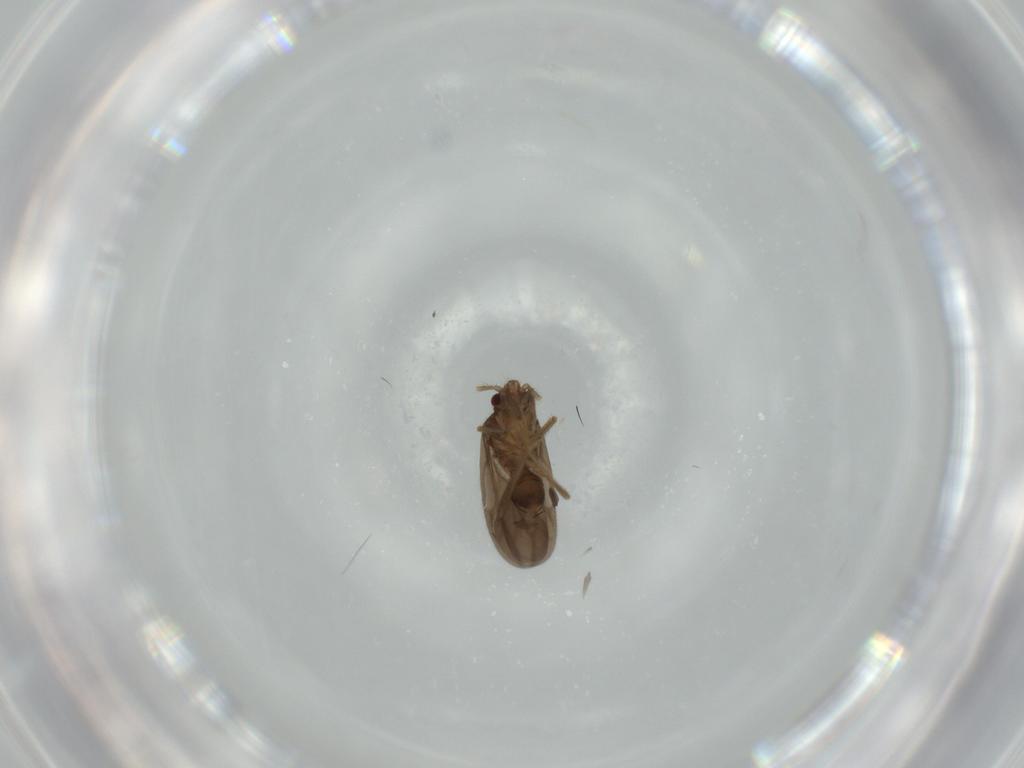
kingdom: Animalia
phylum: Arthropoda
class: Insecta
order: Hemiptera
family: Ceratocombidae
